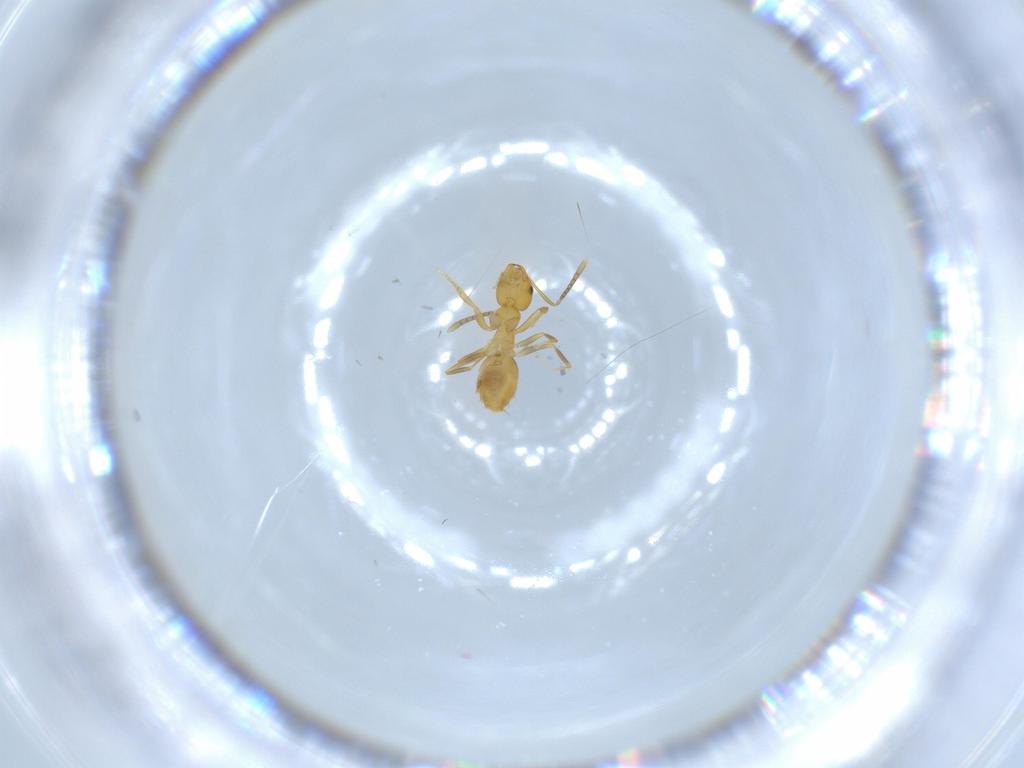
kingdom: Animalia
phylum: Arthropoda
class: Insecta
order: Hymenoptera
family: Formicidae
